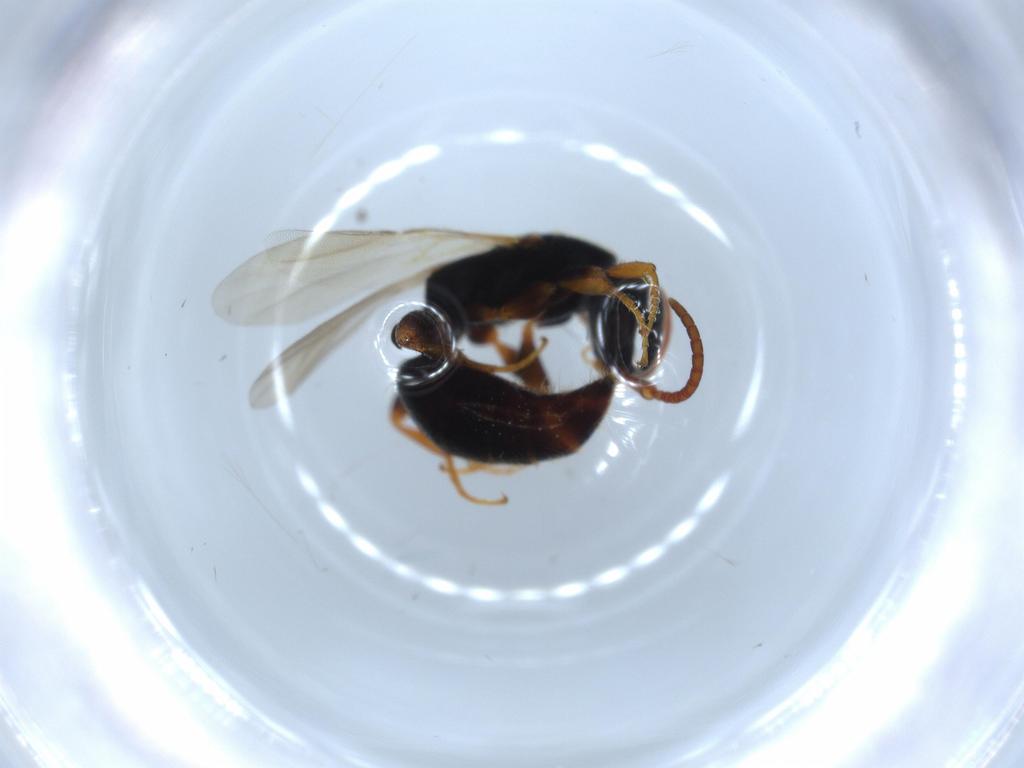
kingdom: Animalia
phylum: Arthropoda
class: Insecta
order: Hymenoptera
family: Bethylidae
